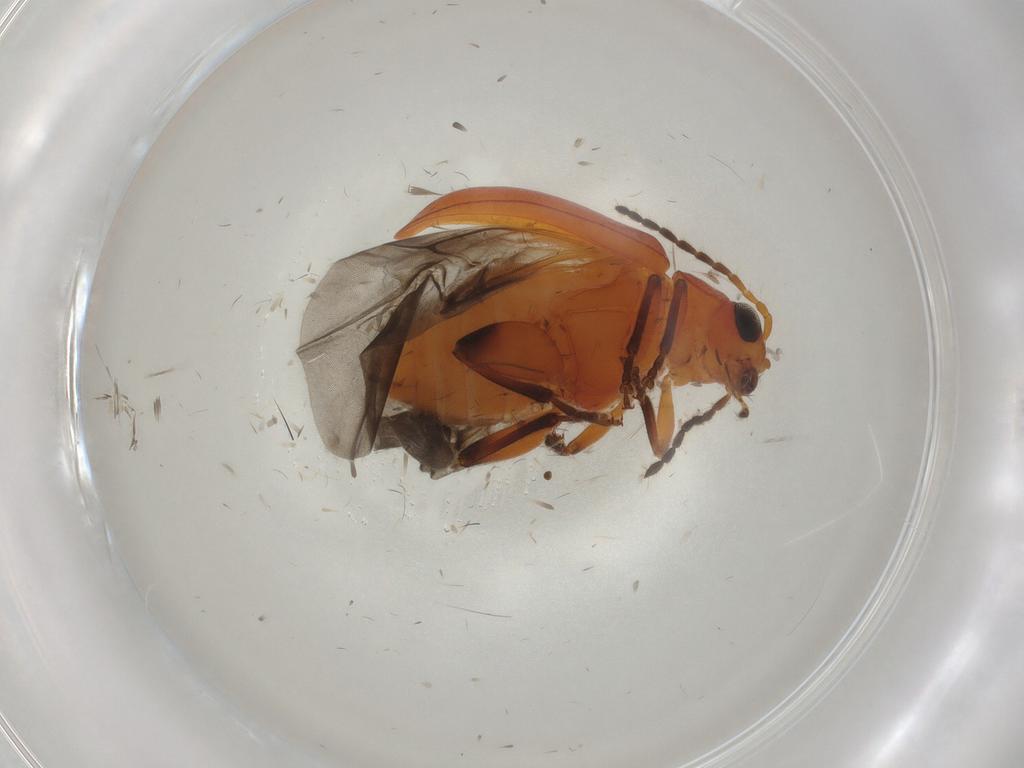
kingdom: Animalia
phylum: Arthropoda
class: Insecta
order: Coleoptera
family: Chrysomelidae
